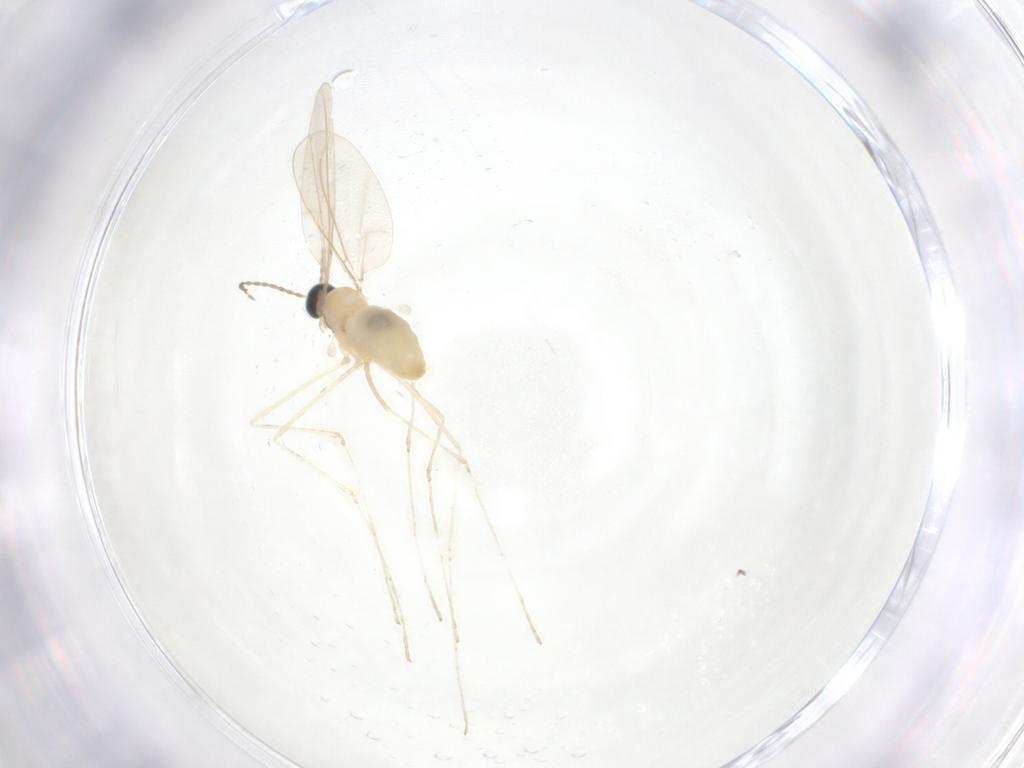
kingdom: Animalia
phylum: Arthropoda
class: Insecta
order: Diptera
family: Cecidomyiidae
